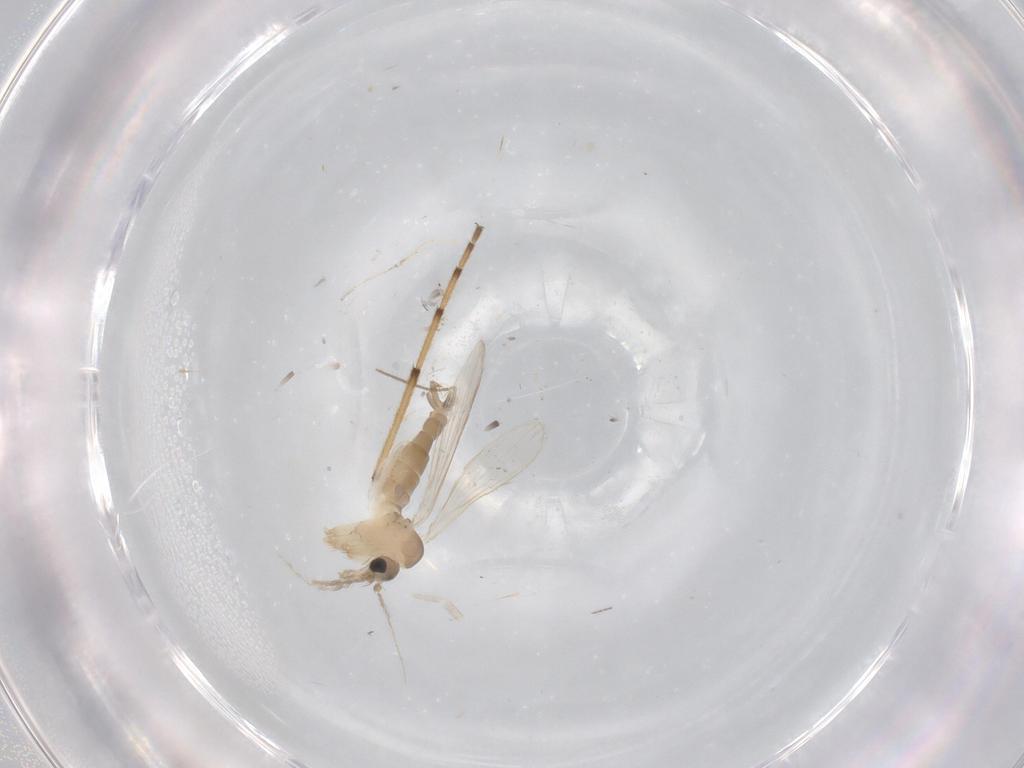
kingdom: Animalia
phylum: Arthropoda
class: Insecta
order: Diptera
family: Psychodidae
